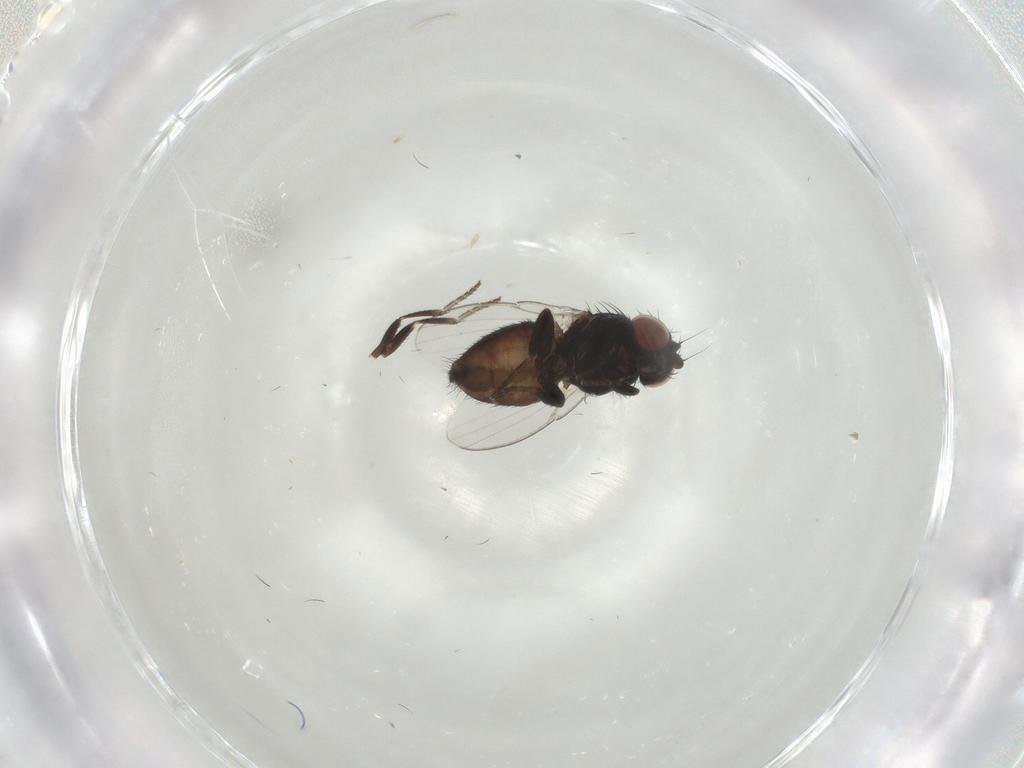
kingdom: Animalia
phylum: Arthropoda
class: Insecta
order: Diptera
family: Milichiidae
